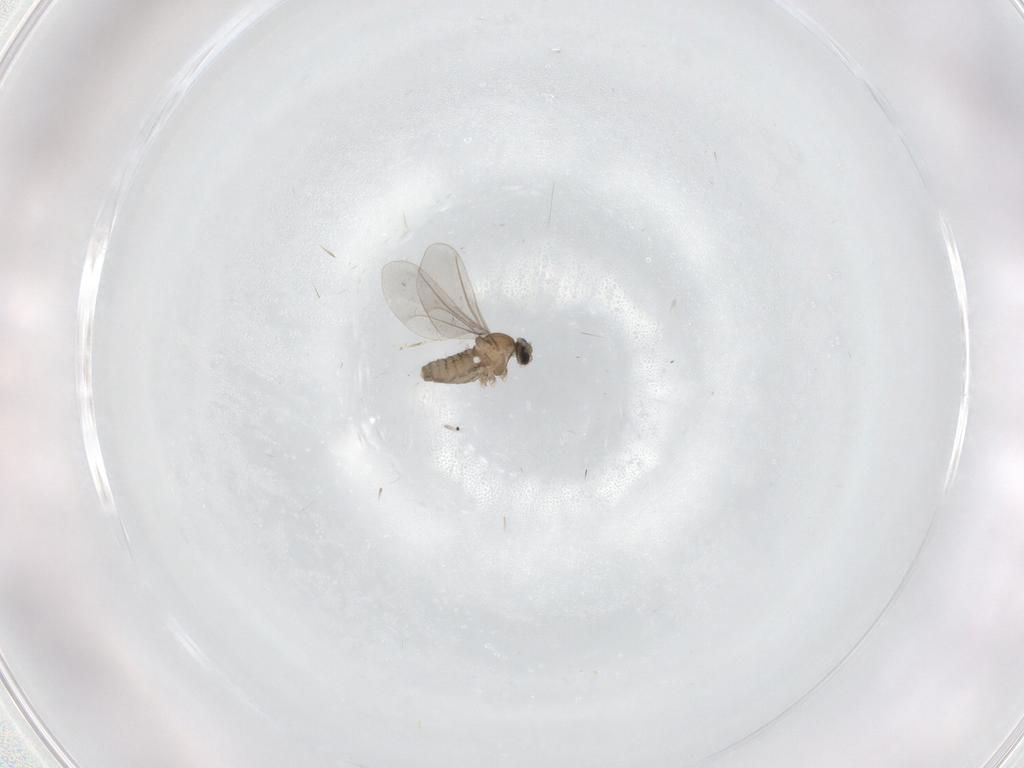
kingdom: Animalia
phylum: Arthropoda
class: Insecta
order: Diptera
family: Cecidomyiidae
